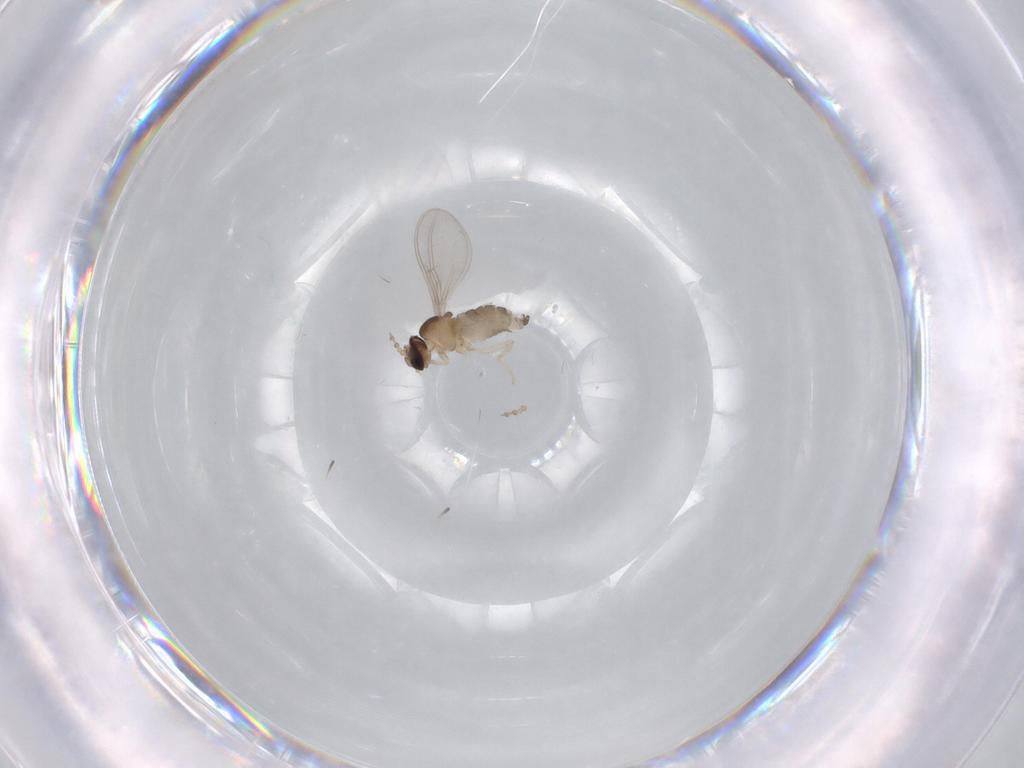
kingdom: Animalia
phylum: Arthropoda
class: Insecta
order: Diptera
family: Cecidomyiidae
